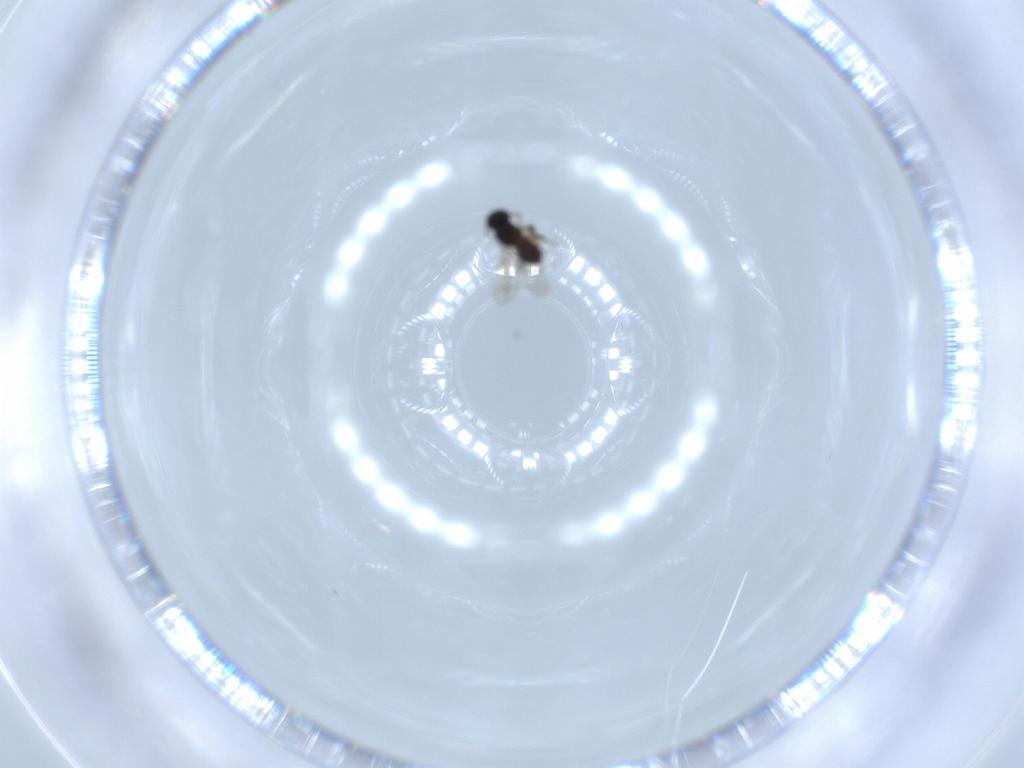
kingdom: Animalia
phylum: Arthropoda
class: Insecta
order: Hymenoptera
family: Platygastridae
